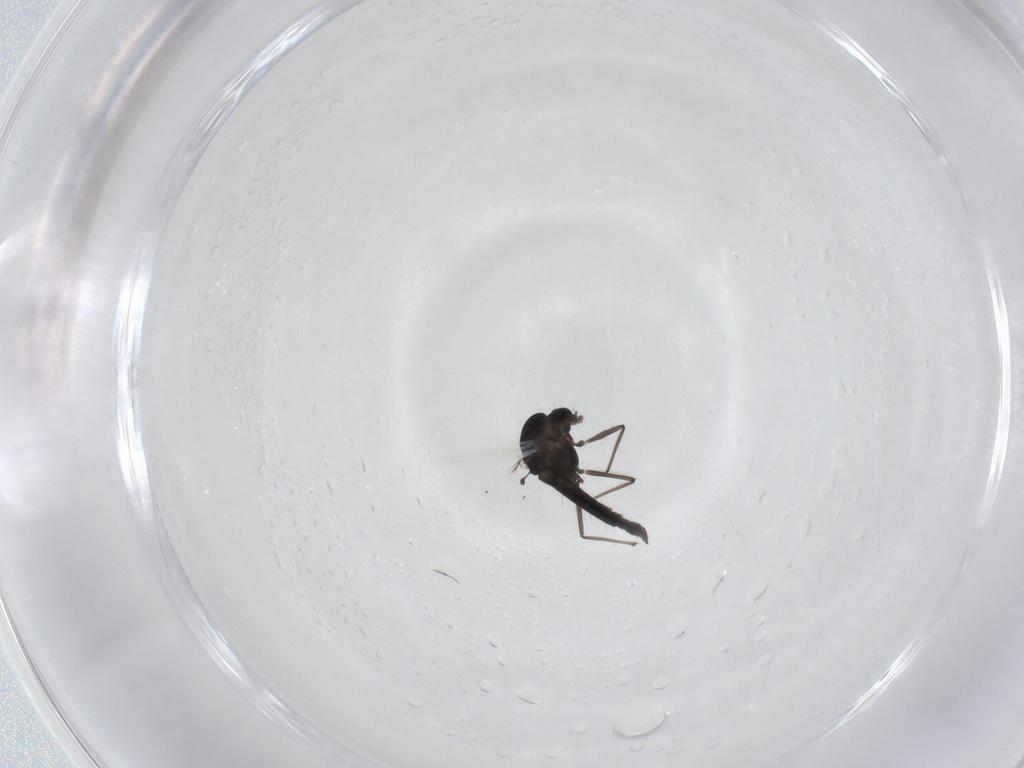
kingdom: Animalia
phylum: Arthropoda
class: Insecta
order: Diptera
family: Chironomidae
